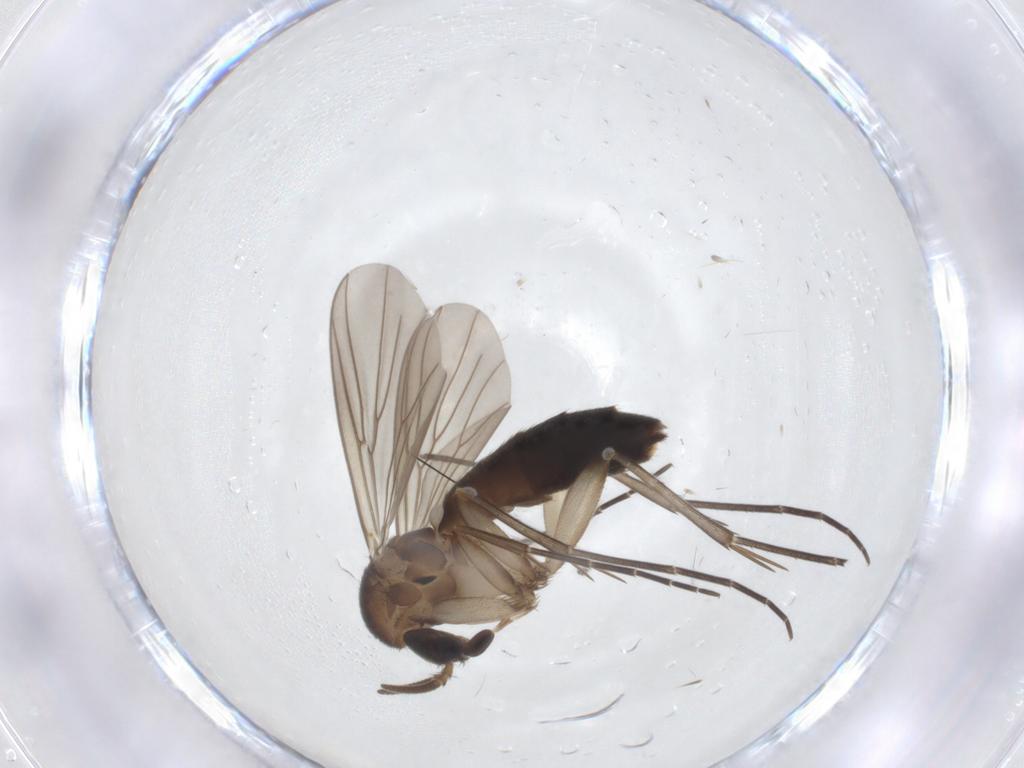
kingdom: Animalia
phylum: Arthropoda
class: Insecta
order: Diptera
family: Mycetophilidae
